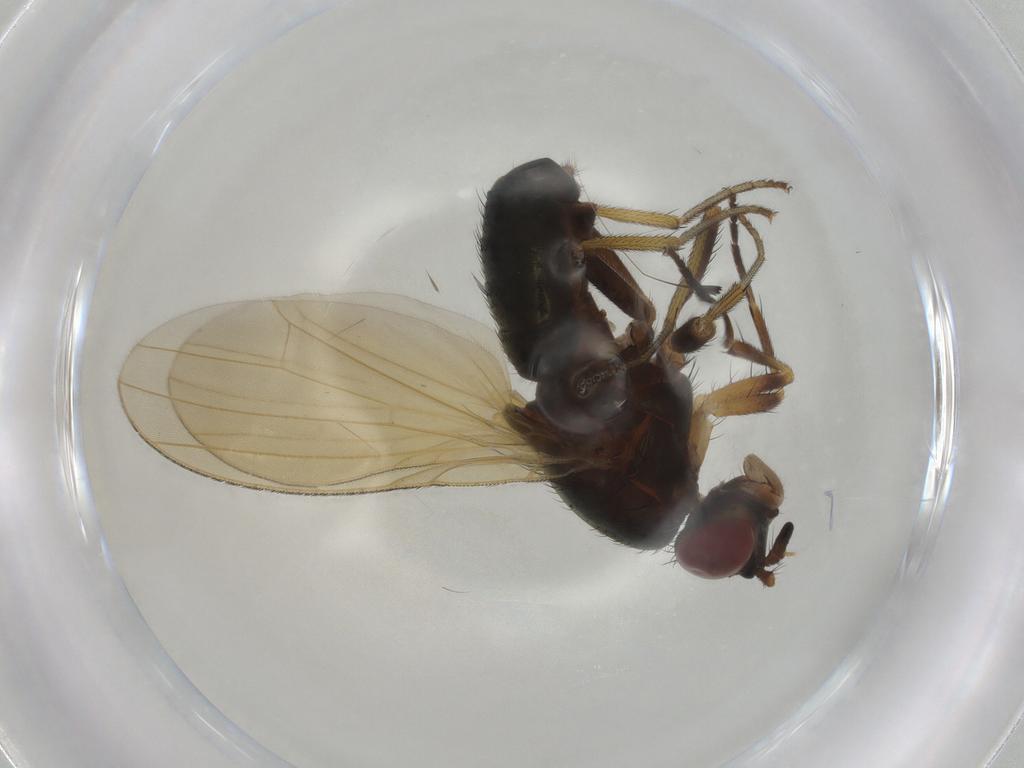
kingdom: Animalia
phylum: Arthropoda
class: Insecta
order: Diptera
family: Lauxaniidae
